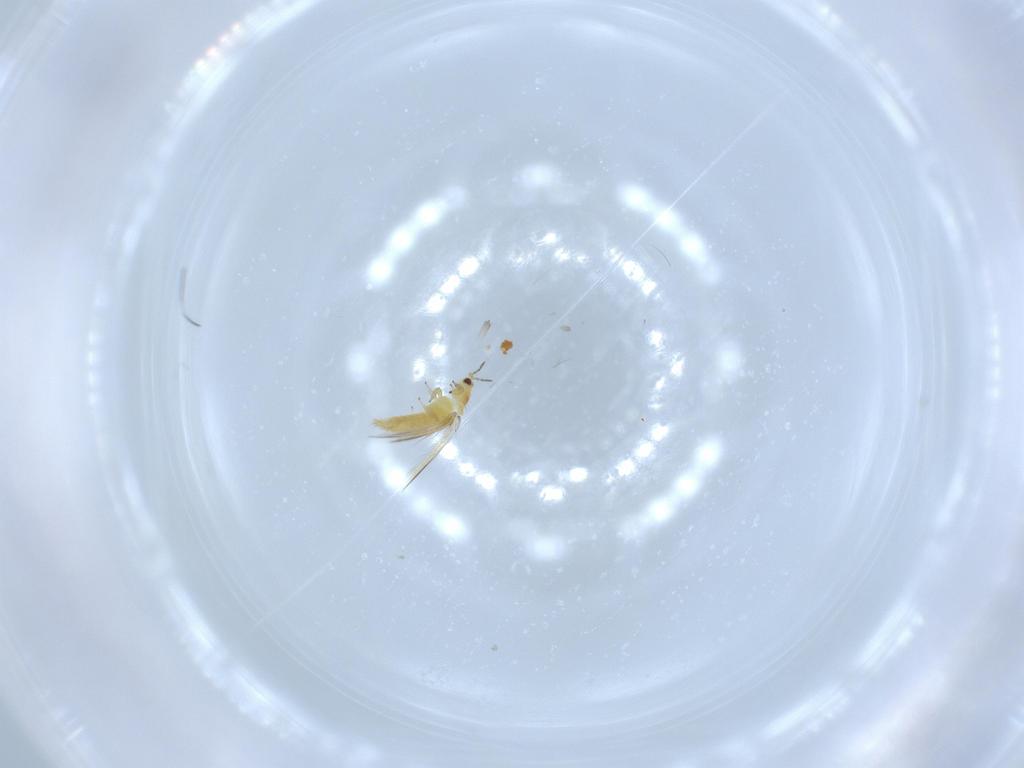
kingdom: Animalia
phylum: Arthropoda
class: Insecta
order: Thysanoptera
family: Thripidae
